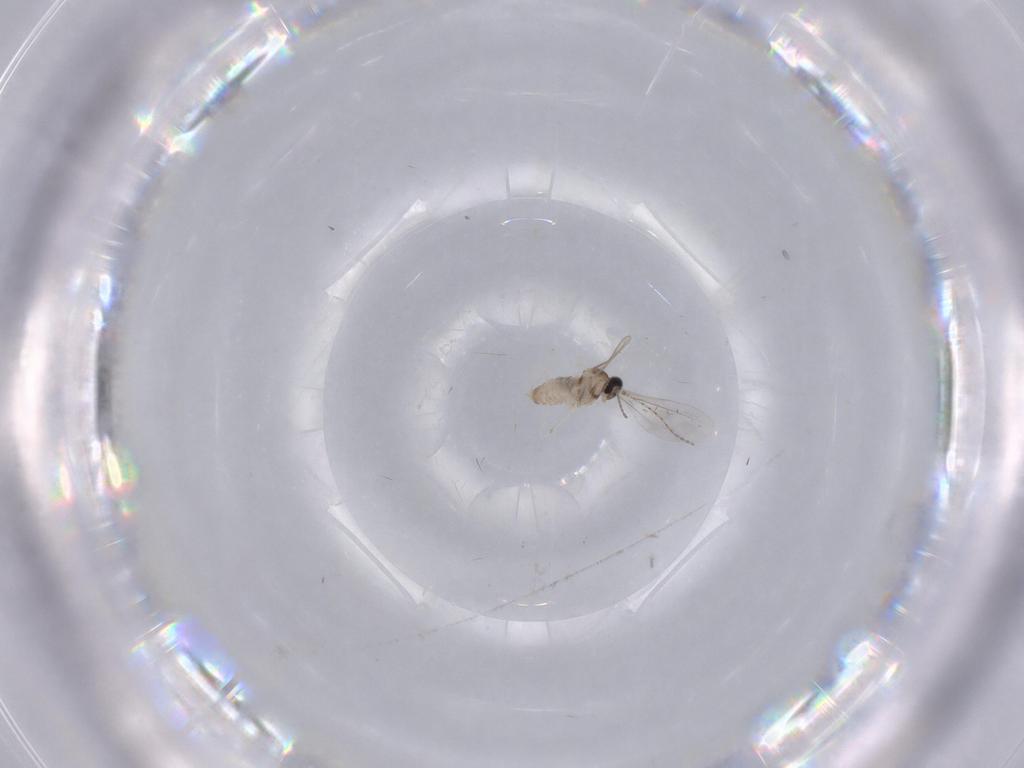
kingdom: Animalia
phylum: Arthropoda
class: Insecta
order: Diptera
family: Cecidomyiidae
